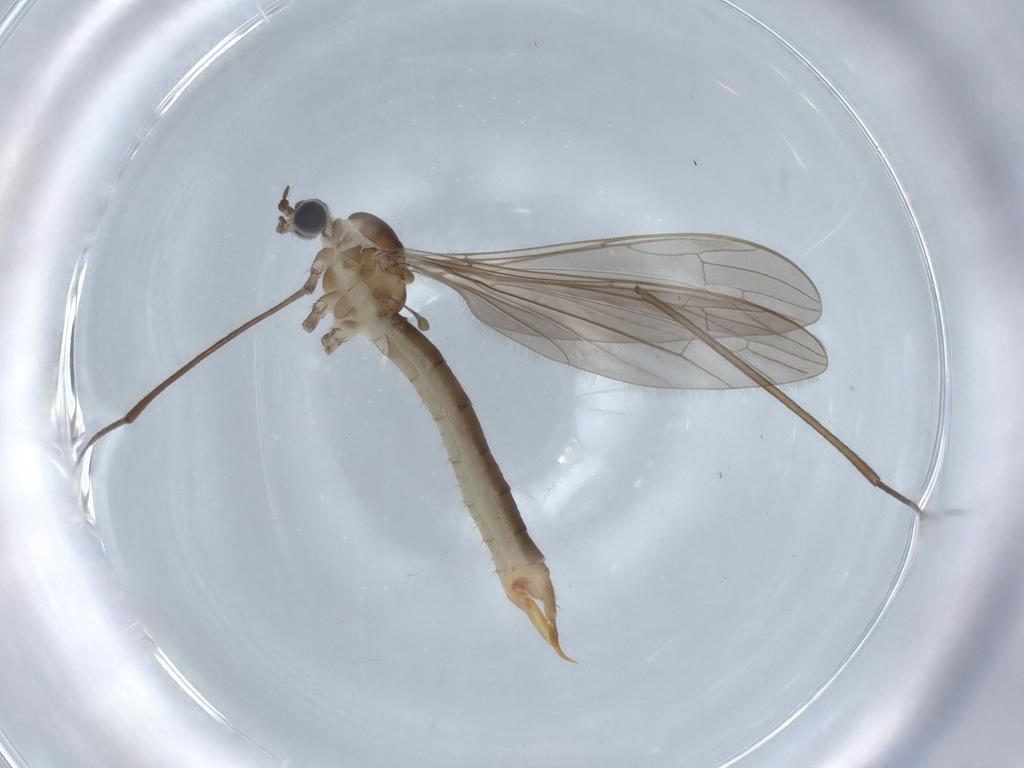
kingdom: Animalia
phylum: Arthropoda
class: Insecta
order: Diptera
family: Limoniidae
